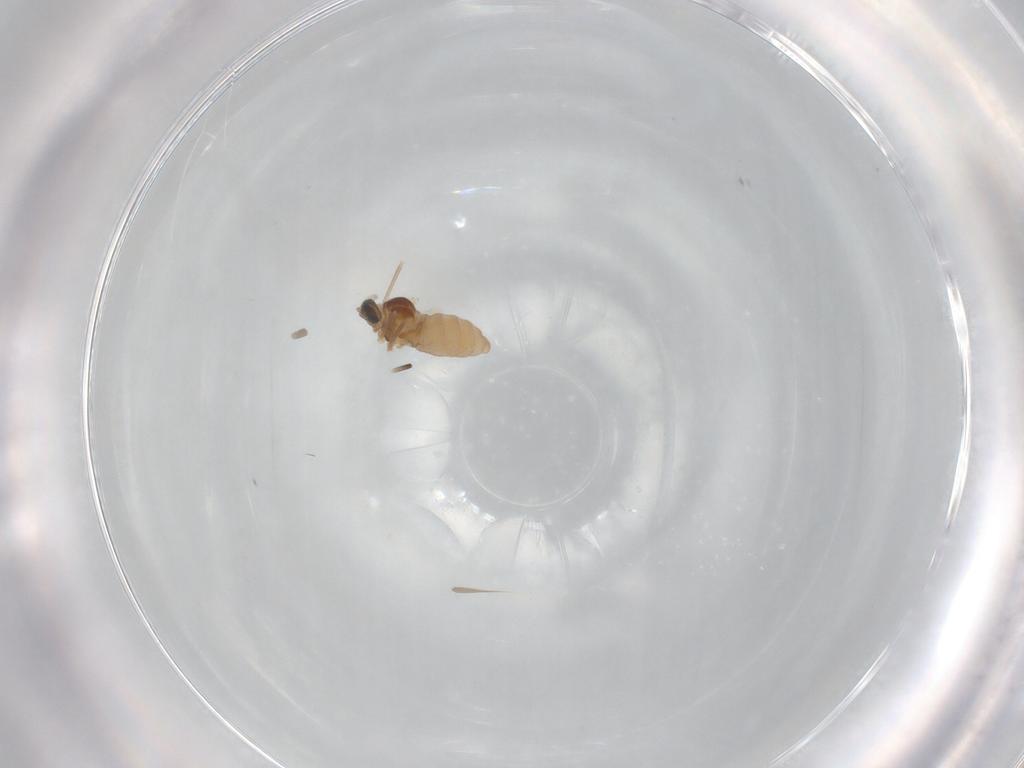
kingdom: Animalia
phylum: Arthropoda
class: Insecta
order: Diptera
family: Cecidomyiidae
